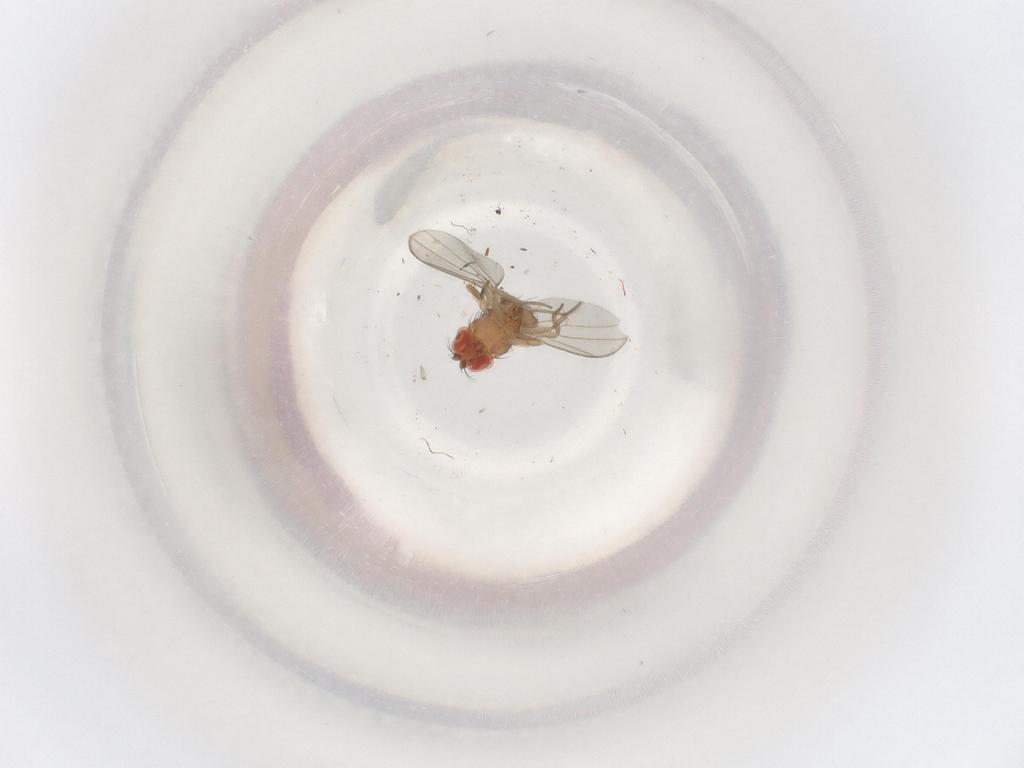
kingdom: Animalia
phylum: Arthropoda
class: Insecta
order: Diptera
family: Drosophilidae
